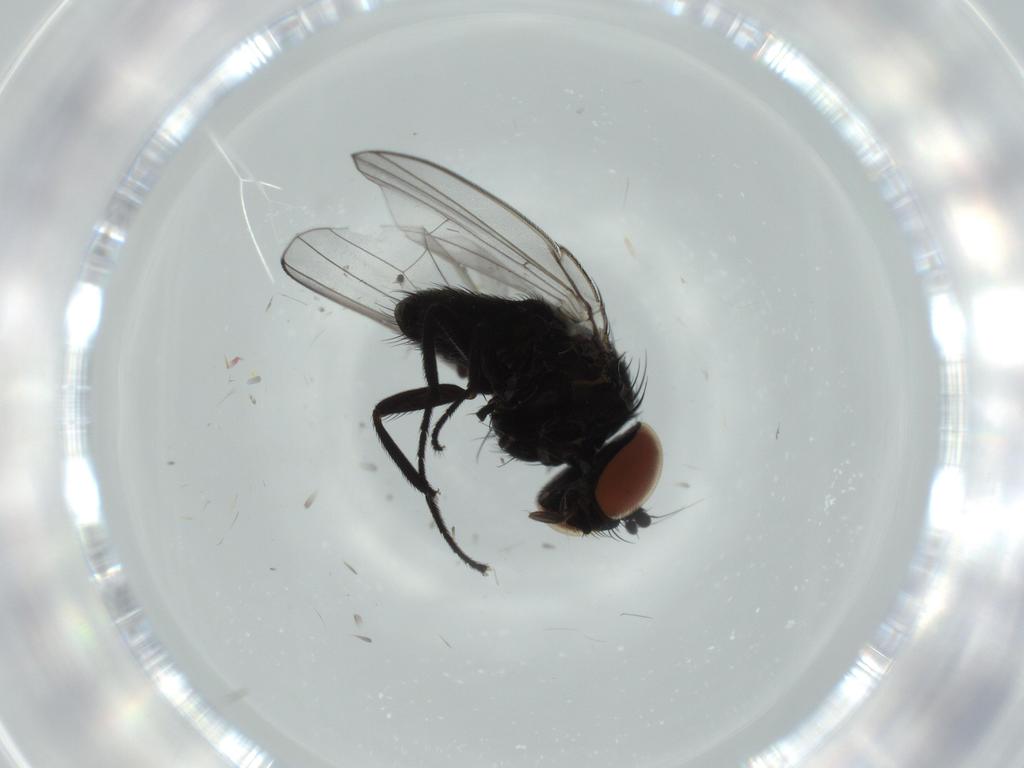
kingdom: Animalia
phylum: Arthropoda
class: Insecta
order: Diptera
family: Milichiidae
